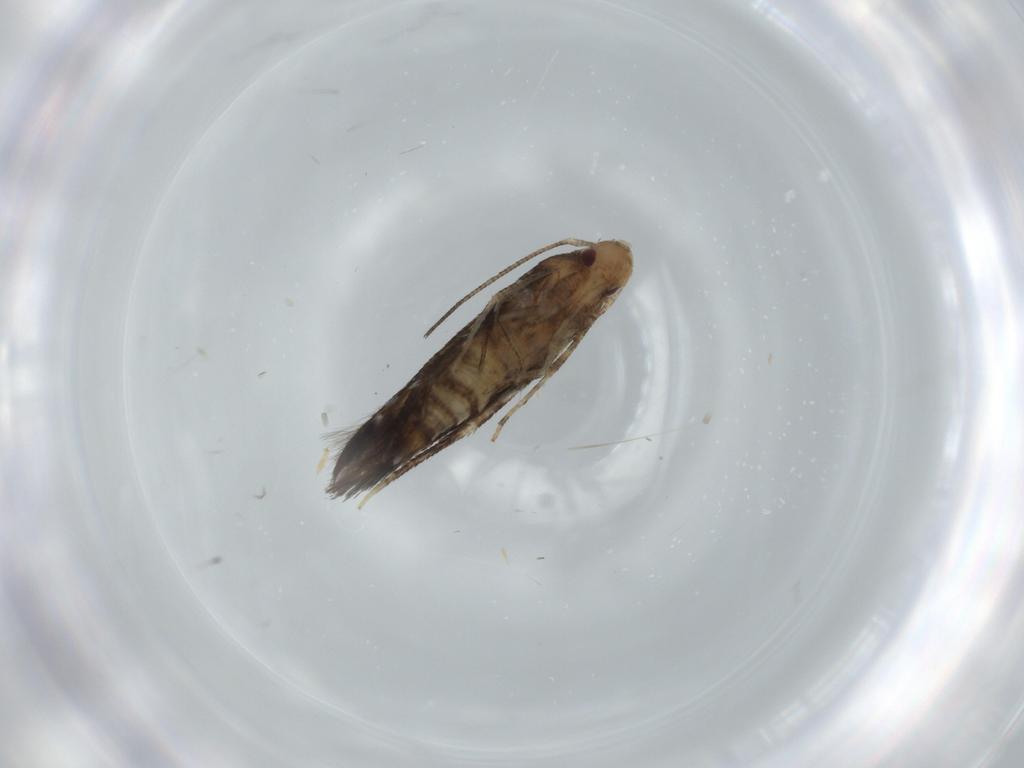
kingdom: Animalia
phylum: Arthropoda
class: Insecta
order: Lepidoptera
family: Momphidae
